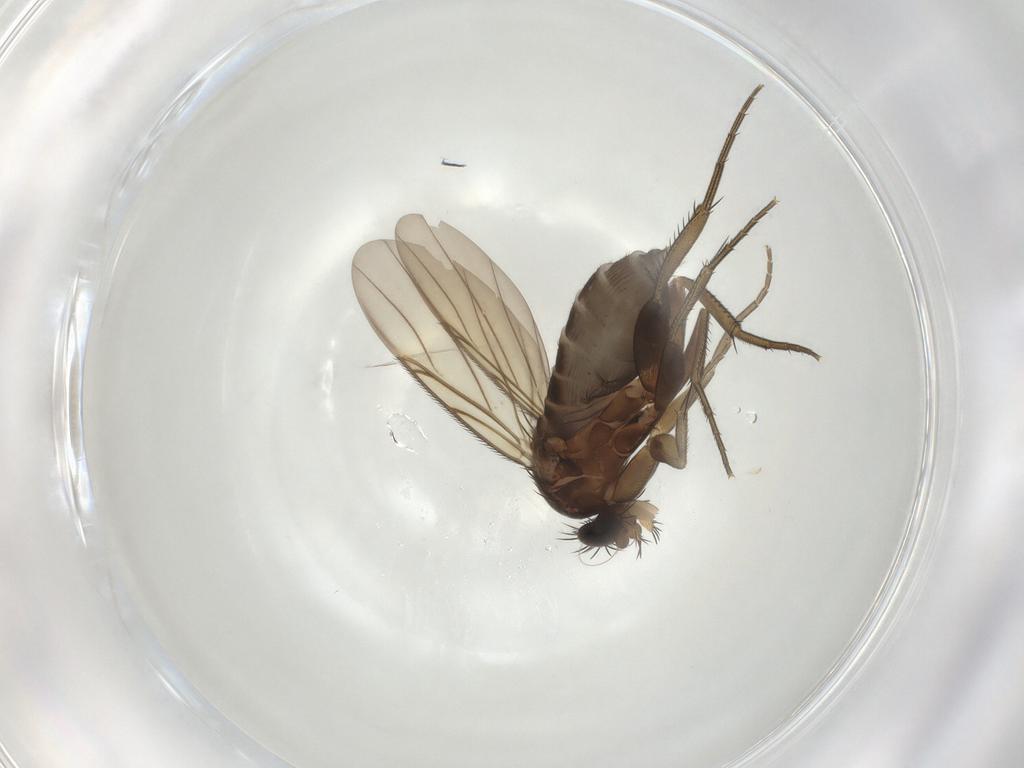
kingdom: Animalia
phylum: Arthropoda
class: Insecta
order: Diptera
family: Phoridae
